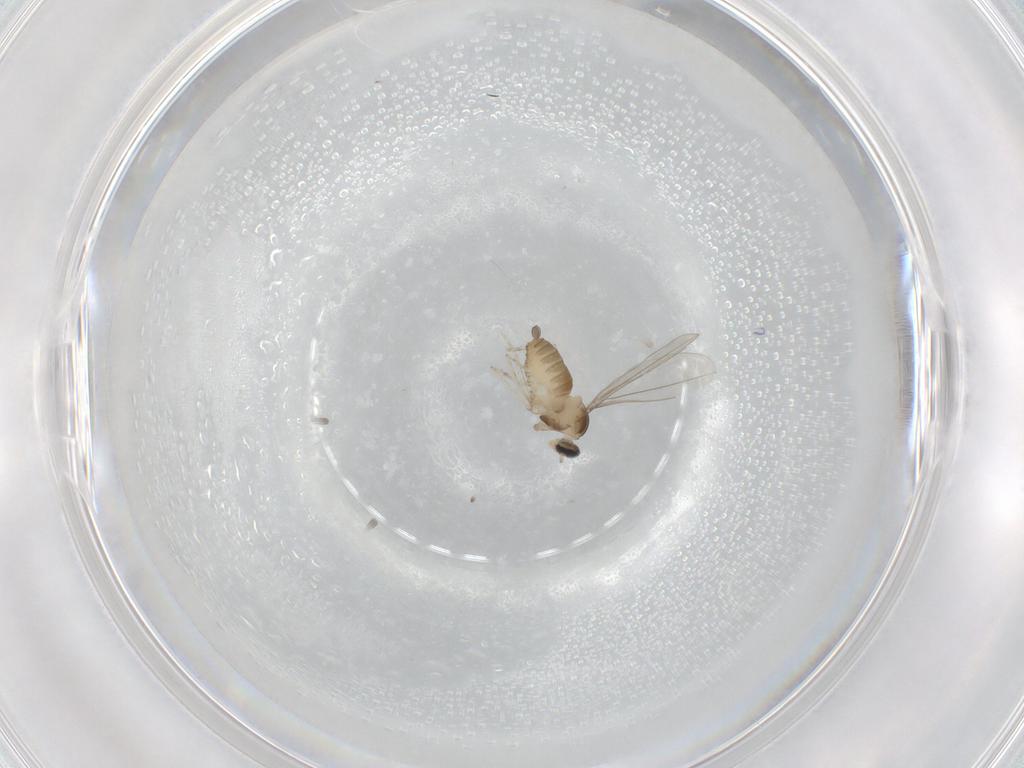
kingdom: Animalia
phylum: Arthropoda
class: Insecta
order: Diptera
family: Cecidomyiidae
